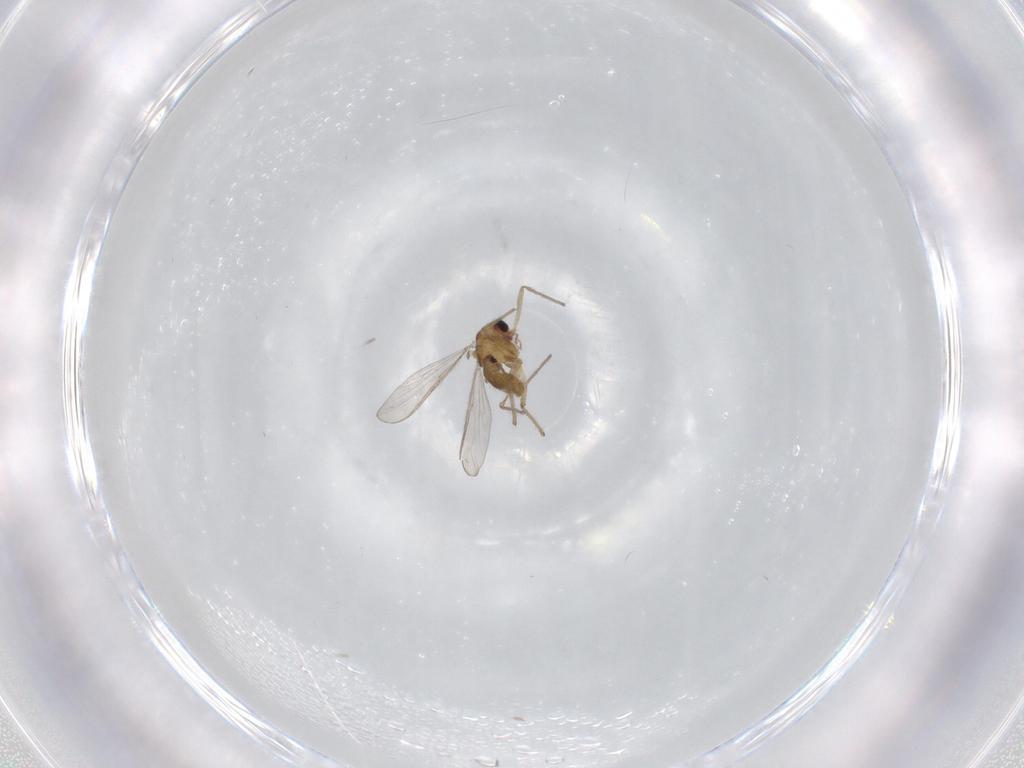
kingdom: Animalia
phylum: Arthropoda
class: Insecta
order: Diptera
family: Chironomidae
